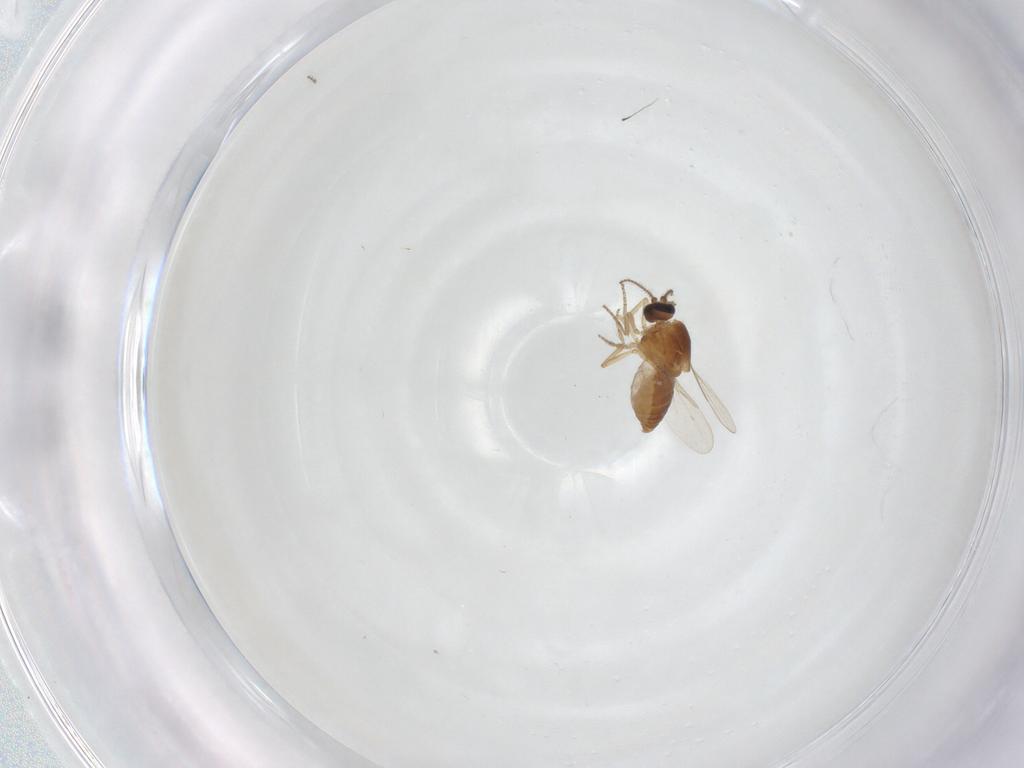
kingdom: Animalia
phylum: Arthropoda
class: Insecta
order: Diptera
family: Ceratopogonidae
